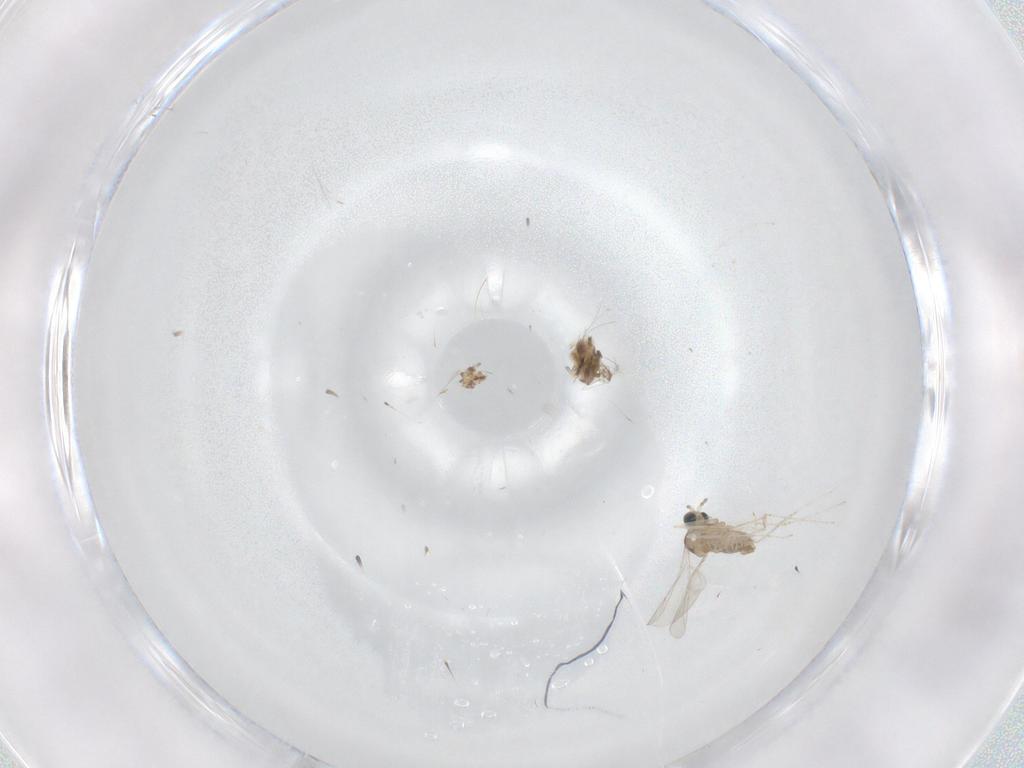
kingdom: Animalia
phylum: Arthropoda
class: Insecta
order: Diptera
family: Cecidomyiidae
